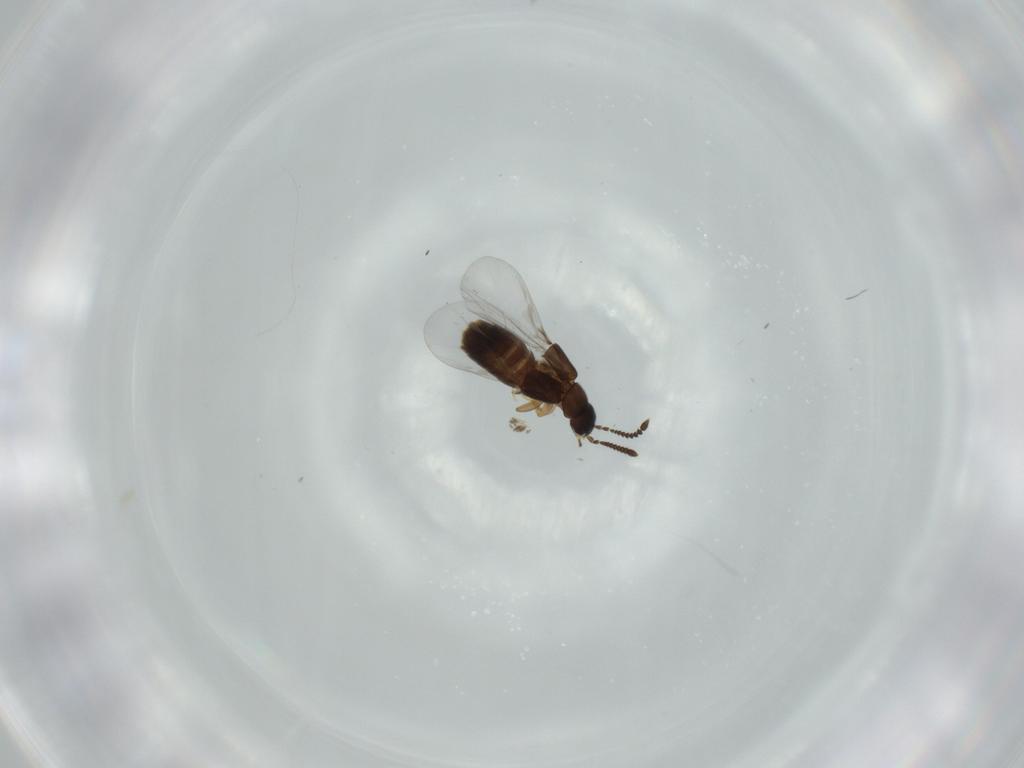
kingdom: Animalia
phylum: Arthropoda
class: Insecta
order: Coleoptera
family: Staphylinidae
